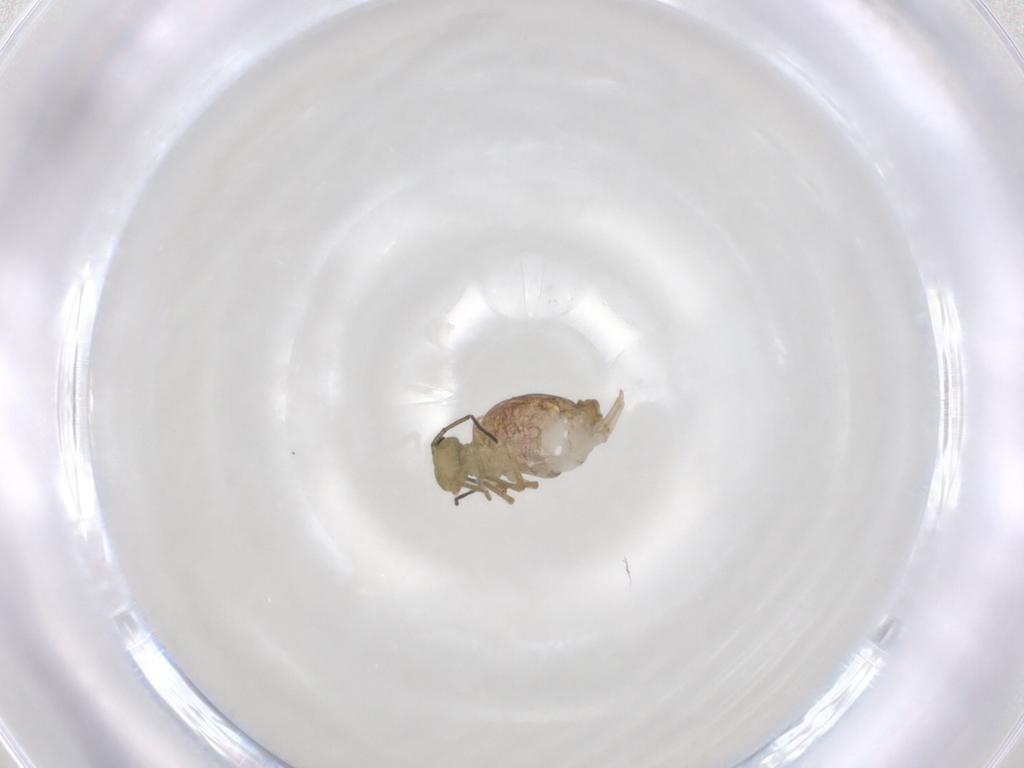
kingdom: Animalia
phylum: Arthropoda
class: Collembola
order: Symphypleona
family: Sminthuridae
